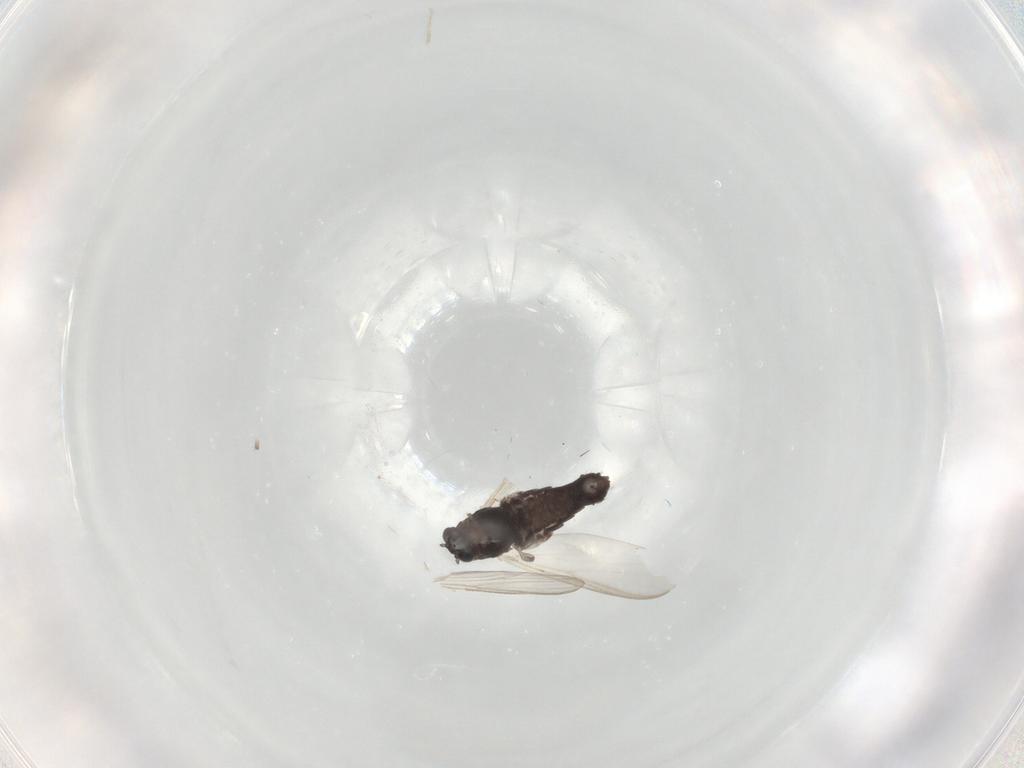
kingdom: Animalia
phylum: Arthropoda
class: Insecta
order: Diptera
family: Chironomidae
